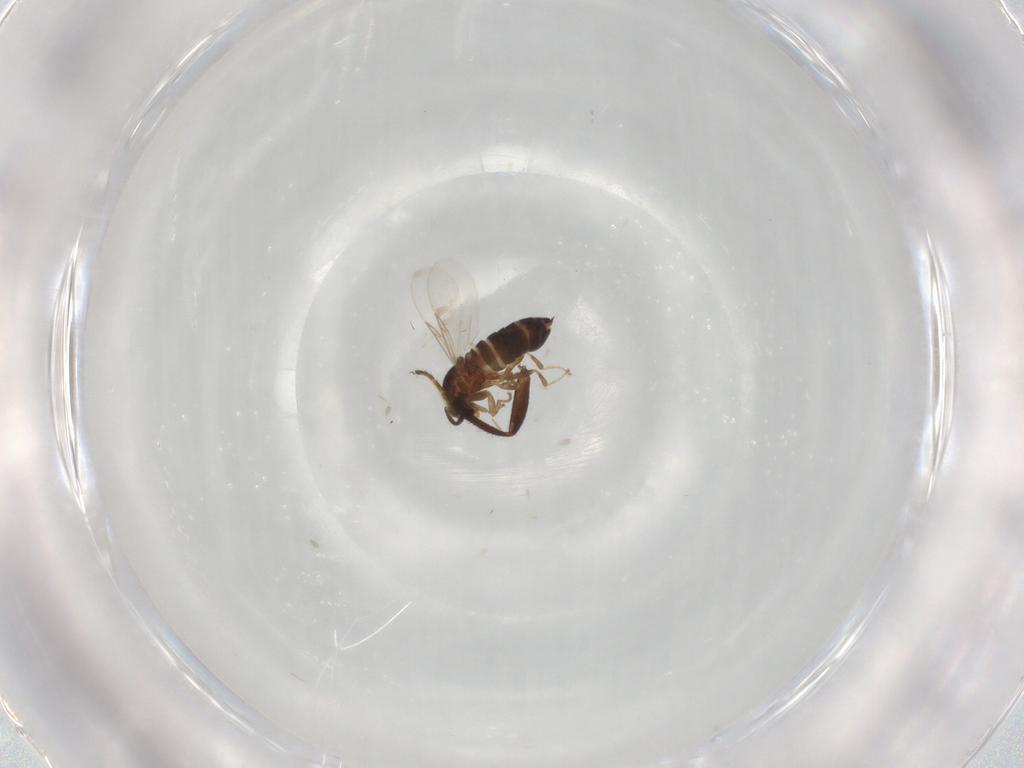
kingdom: Animalia
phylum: Arthropoda
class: Insecta
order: Diptera
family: Scatopsidae
